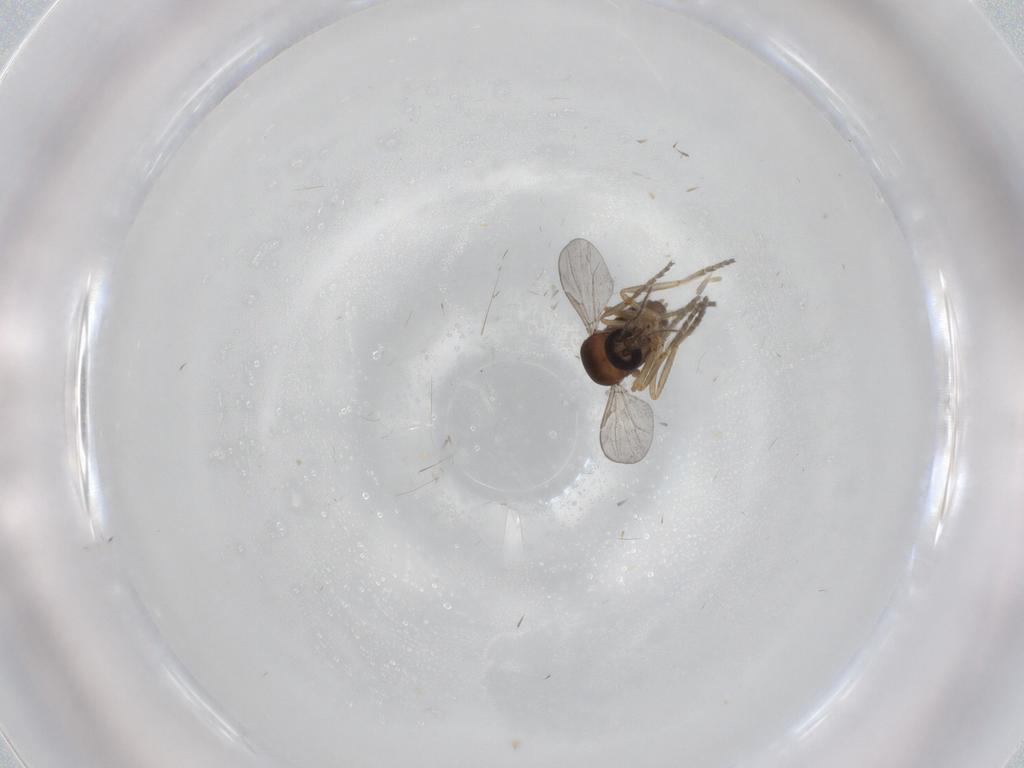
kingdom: Animalia
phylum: Arthropoda
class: Insecta
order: Diptera
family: Ceratopogonidae
